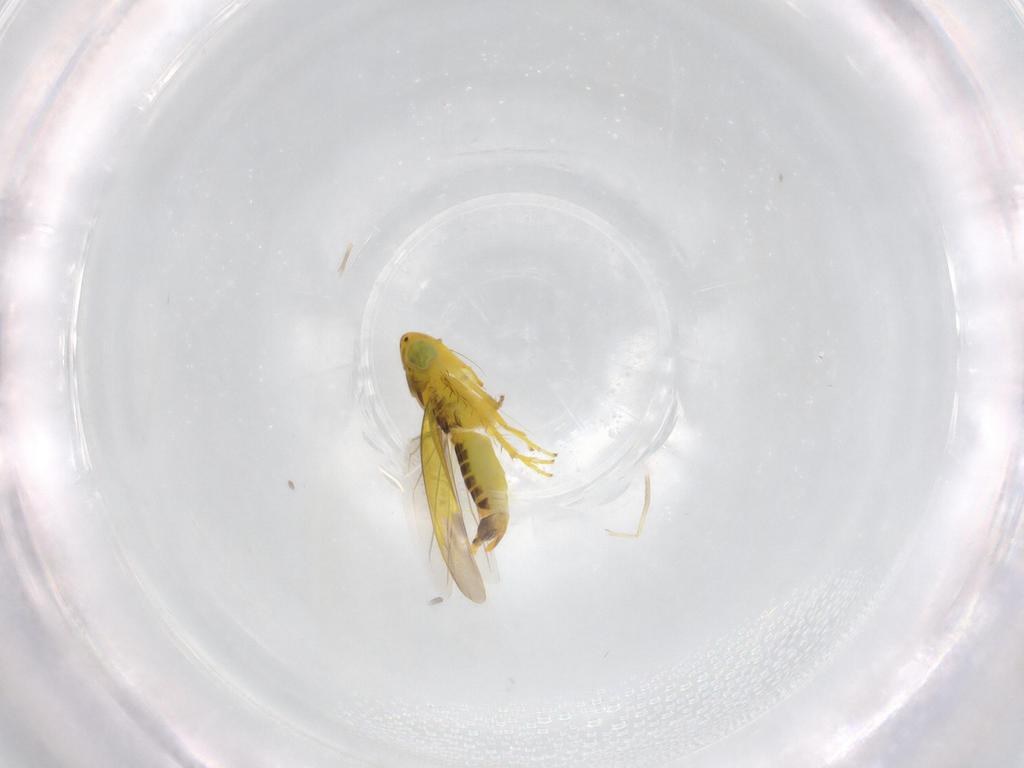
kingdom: Animalia
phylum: Arthropoda
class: Insecta
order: Hemiptera
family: Cicadellidae
